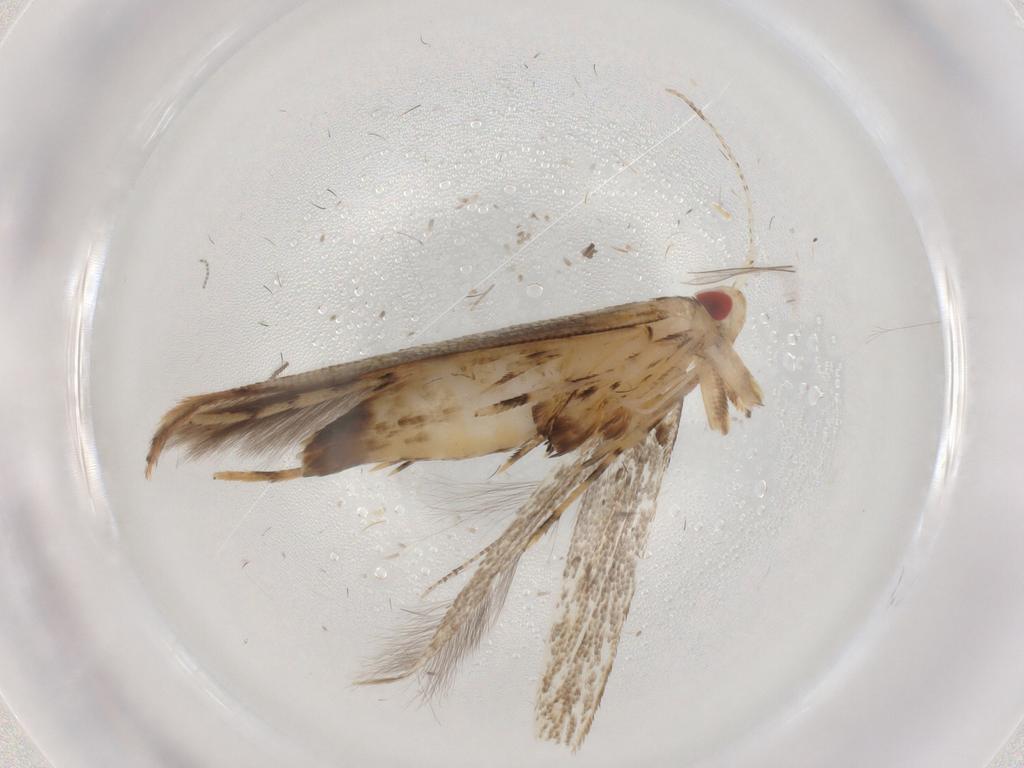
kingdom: Animalia
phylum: Arthropoda
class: Insecta
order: Lepidoptera
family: Cosmopterigidae
